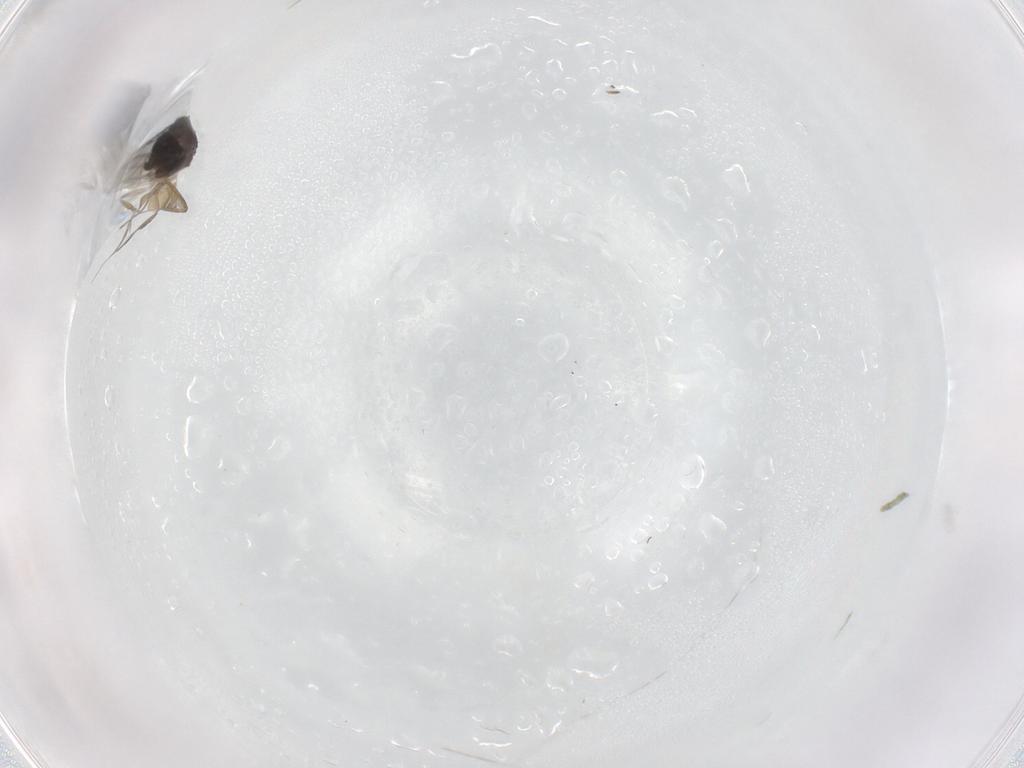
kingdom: Animalia
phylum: Arthropoda
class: Insecta
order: Diptera
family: Phoridae
